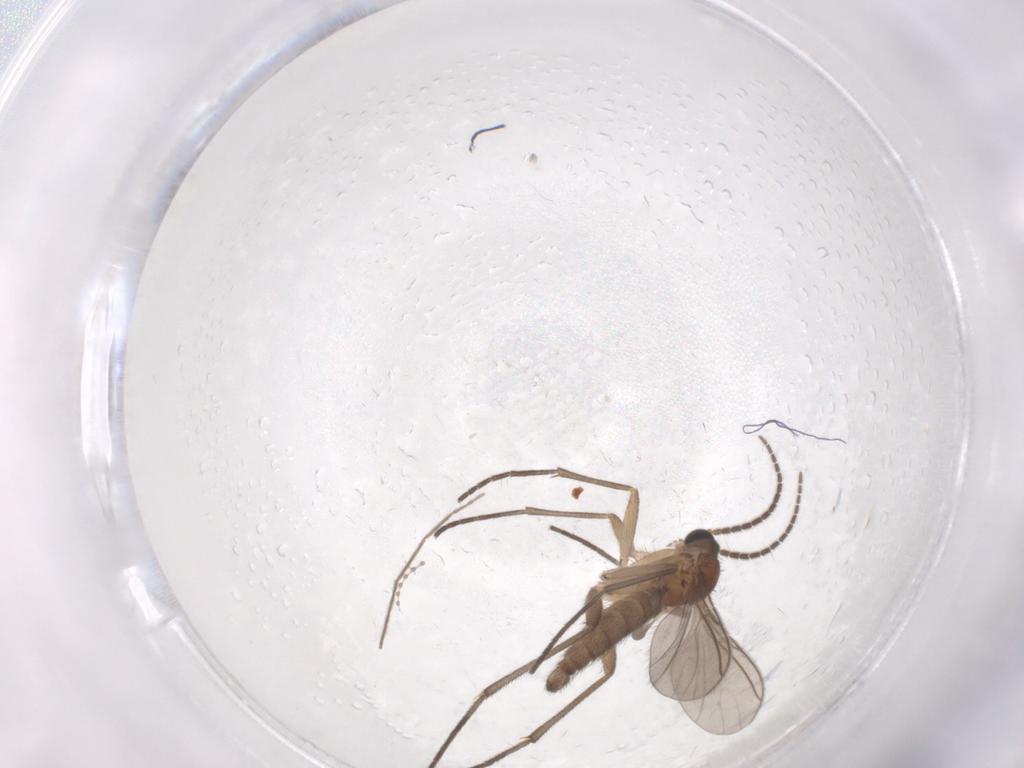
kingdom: Animalia
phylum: Arthropoda
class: Insecta
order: Diptera
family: Sciaridae
